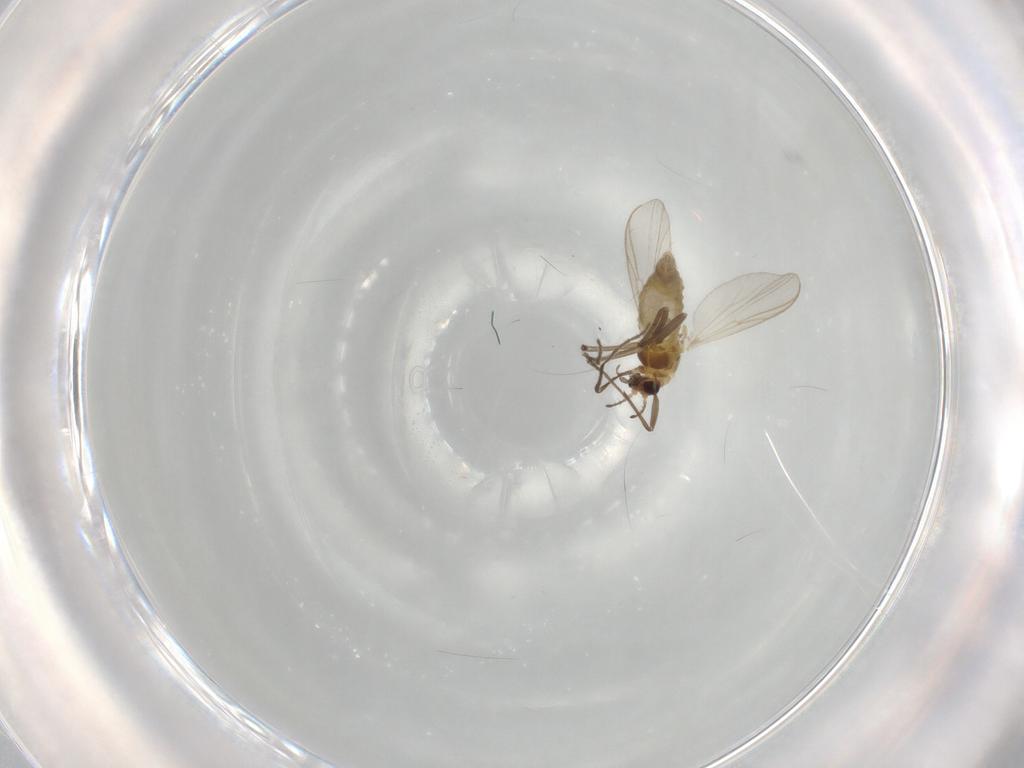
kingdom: Animalia
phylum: Arthropoda
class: Insecta
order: Diptera
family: Chironomidae
